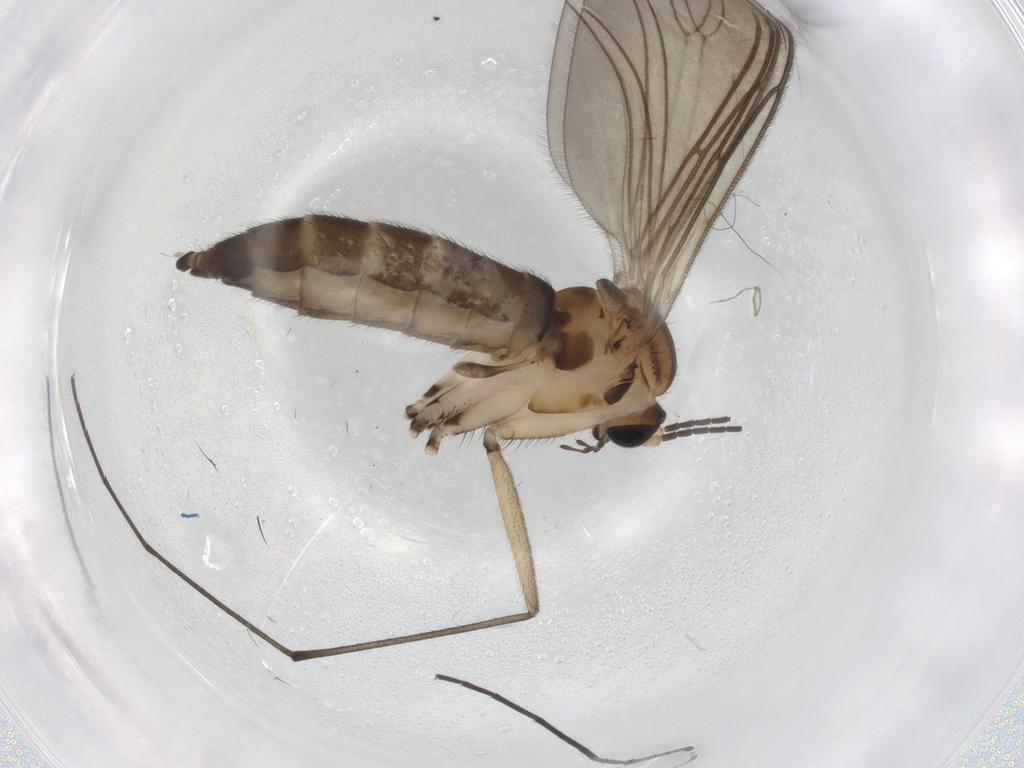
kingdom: Animalia
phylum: Arthropoda
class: Insecta
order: Diptera
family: Sciaridae
